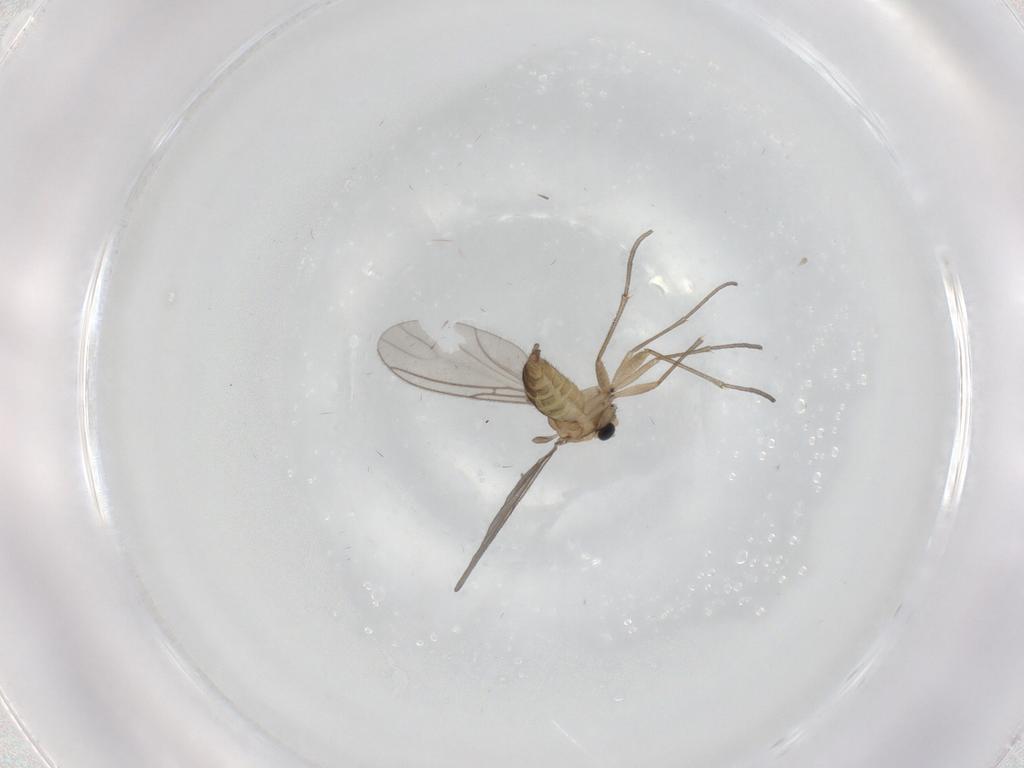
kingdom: Animalia
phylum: Arthropoda
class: Insecta
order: Diptera
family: Sciaridae
